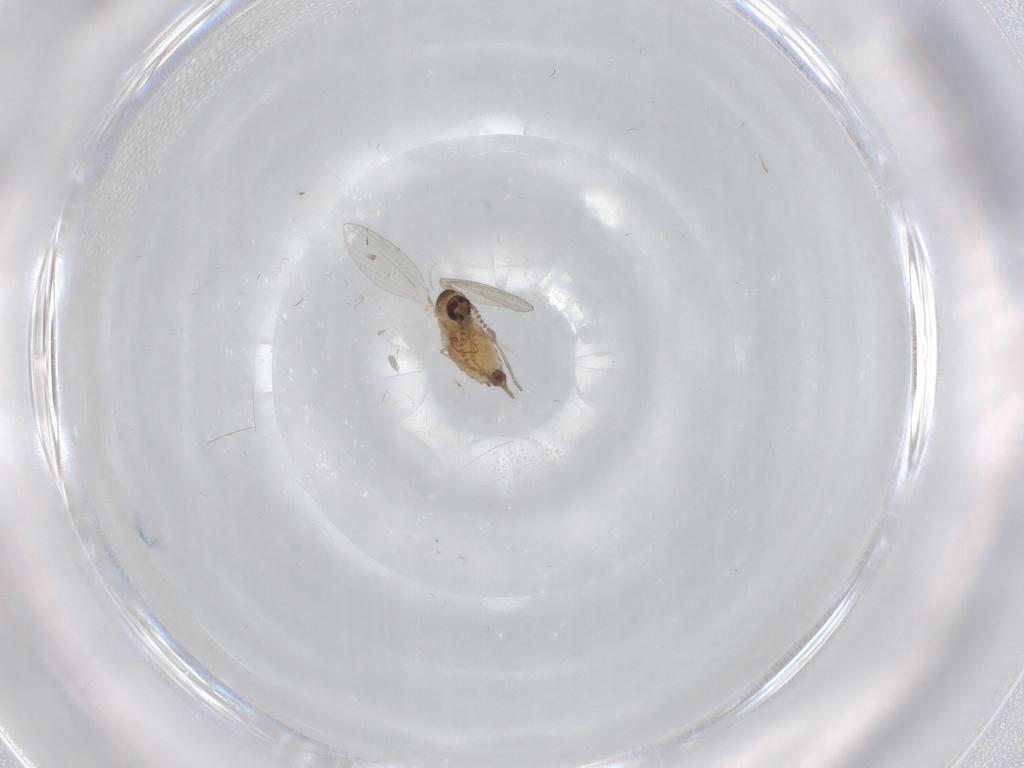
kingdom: Animalia
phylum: Arthropoda
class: Insecta
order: Diptera
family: Psychodidae
